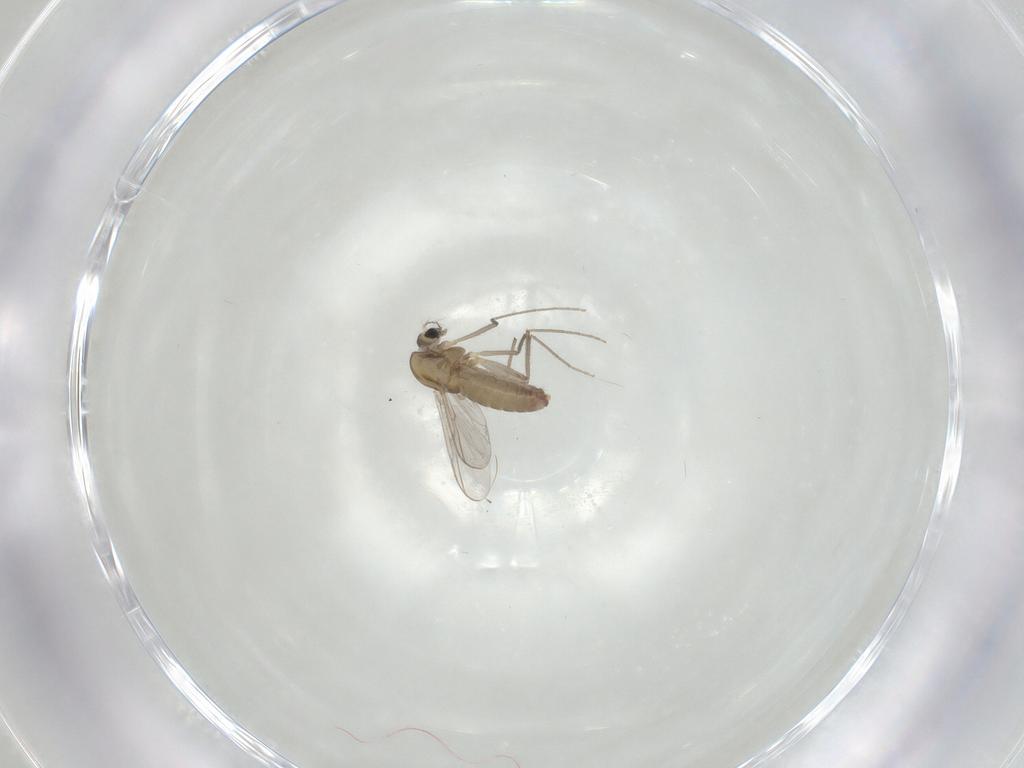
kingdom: Animalia
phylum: Arthropoda
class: Insecta
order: Diptera
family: Chironomidae
